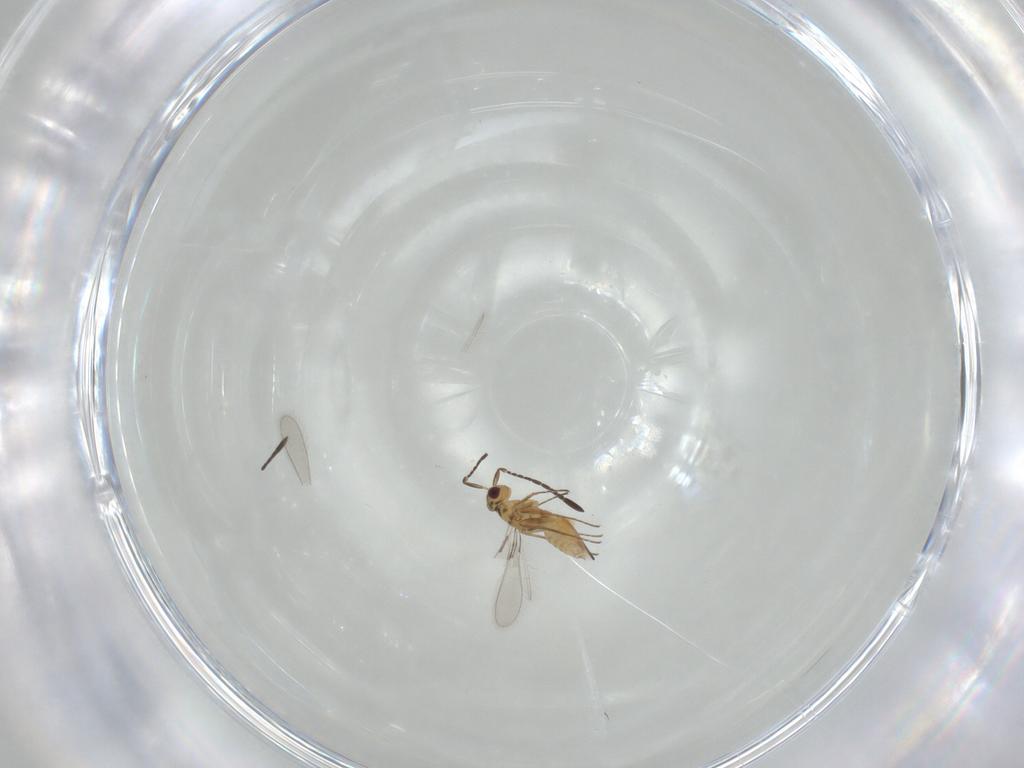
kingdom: Animalia
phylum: Arthropoda
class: Insecta
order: Hymenoptera
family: Mymaridae
